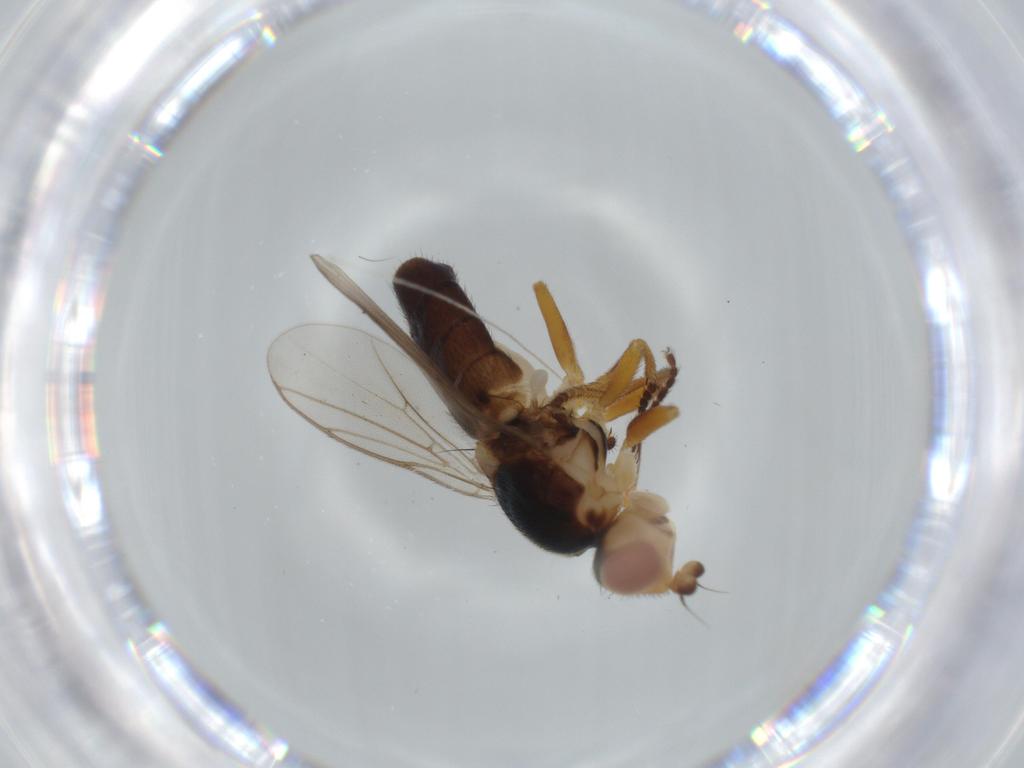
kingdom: Animalia
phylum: Arthropoda
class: Insecta
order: Diptera
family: Chloropidae
